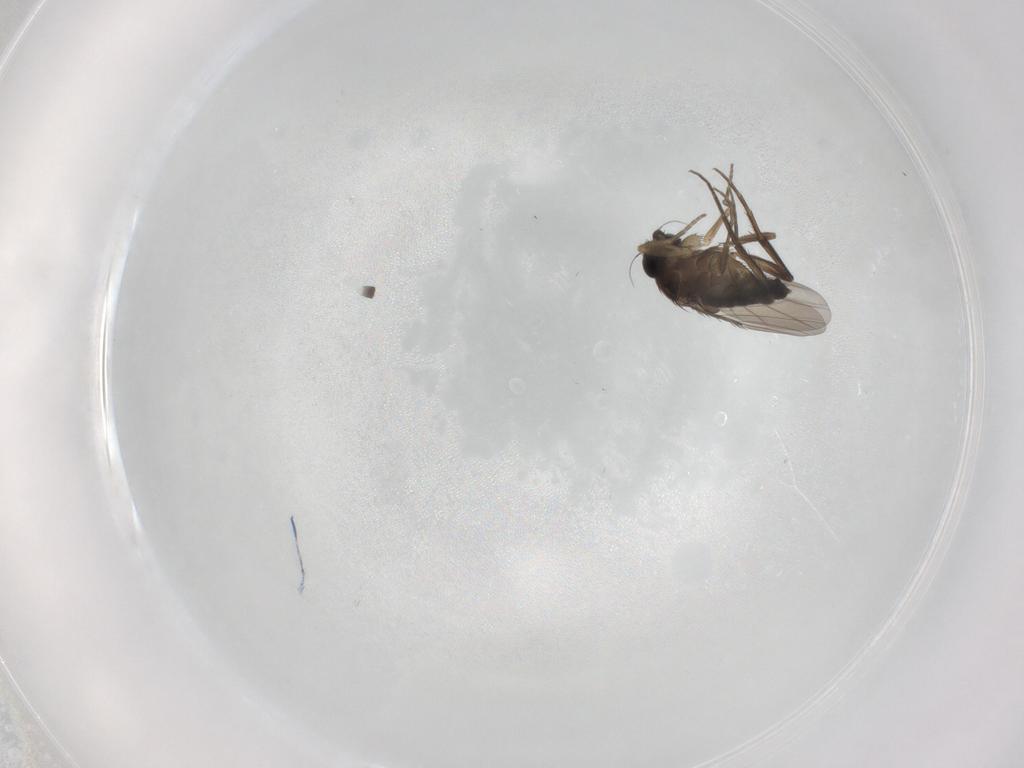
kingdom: Animalia
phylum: Arthropoda
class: Insecta
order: Diptera
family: Phoridae
